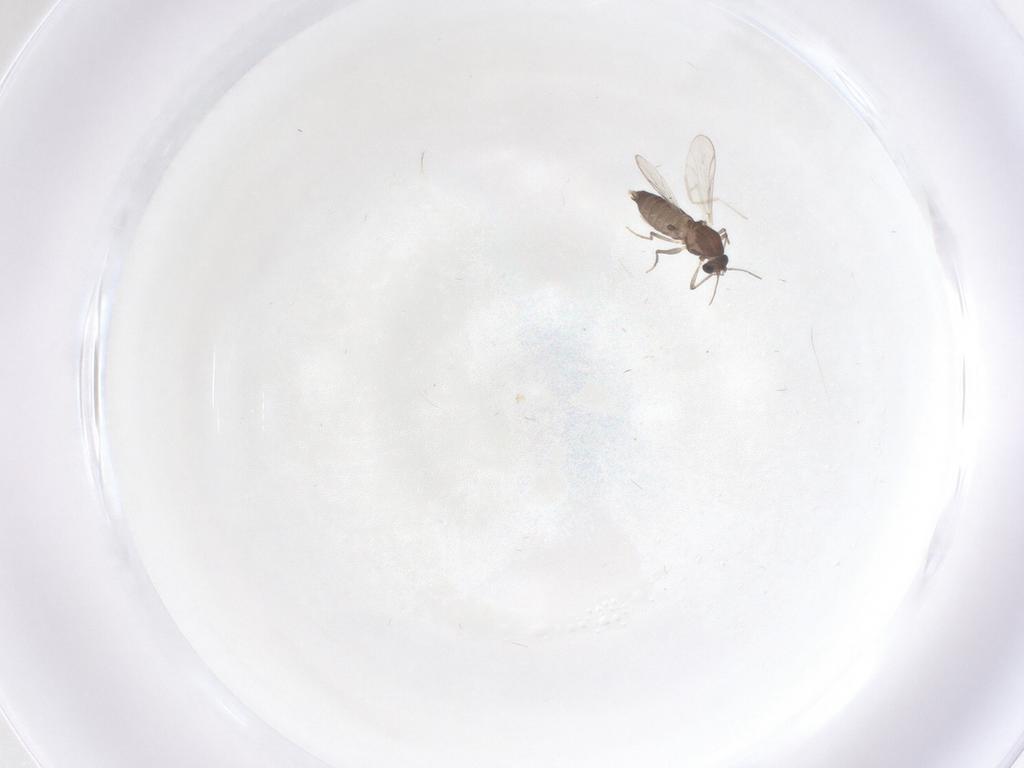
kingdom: Animalia
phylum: Arthropoda
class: Insecta
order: Diptera
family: Chironomidae
